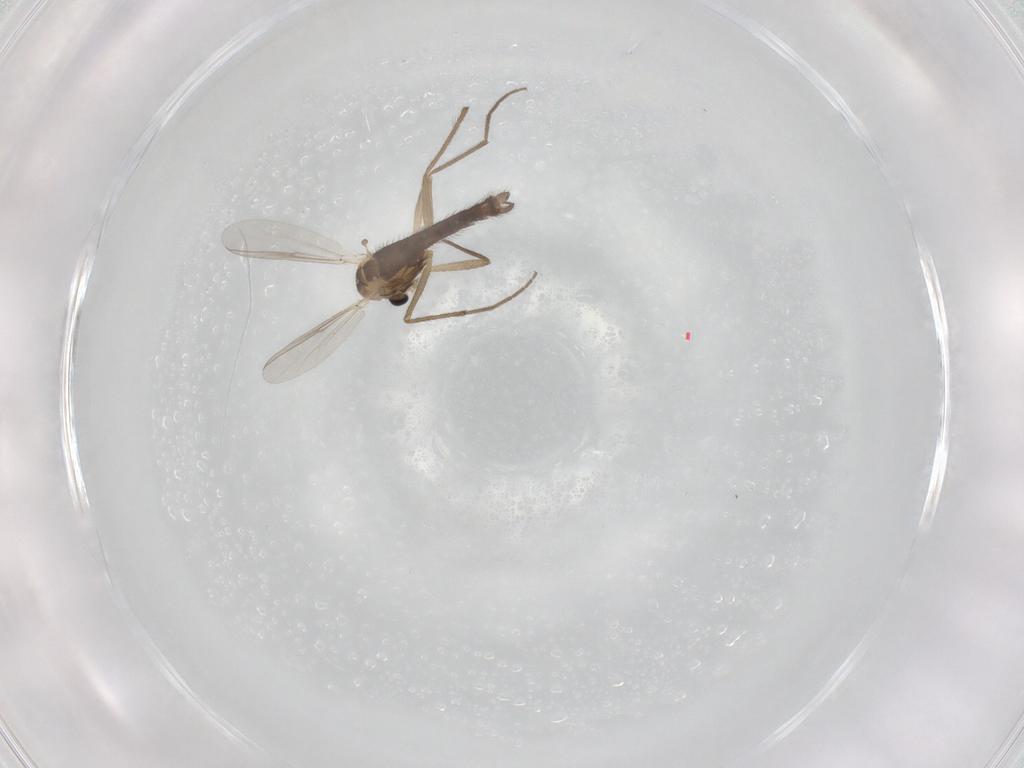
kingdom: Animalia
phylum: Arthropoda
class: Insecta
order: Diptera
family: Chironomidae
